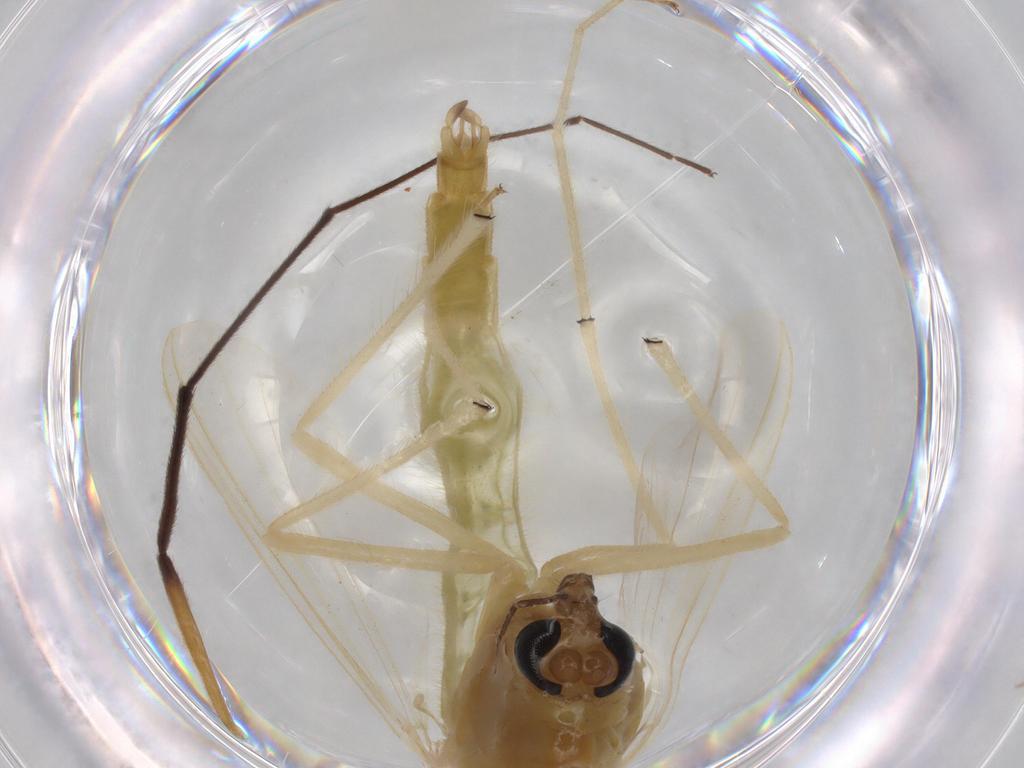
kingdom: Animalia
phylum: Arthropoda
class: Insecta
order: Diptera
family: Chironomidae
